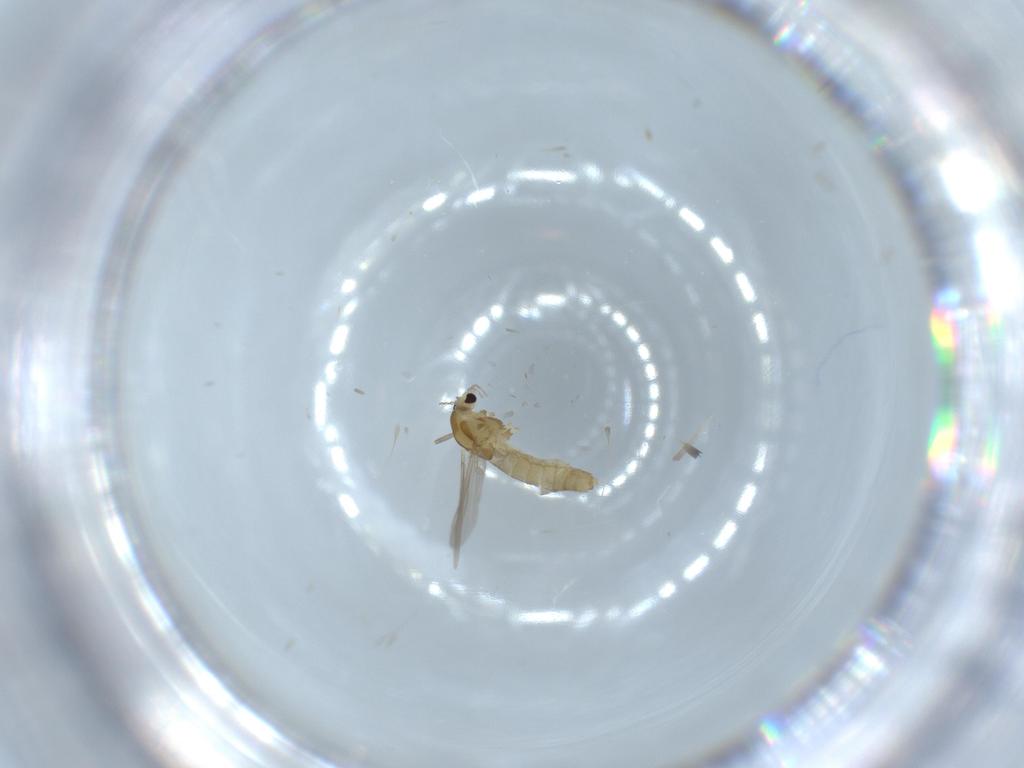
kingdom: Animalia
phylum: Arthropoda
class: Insecta
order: Diptera
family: Chironomidae
